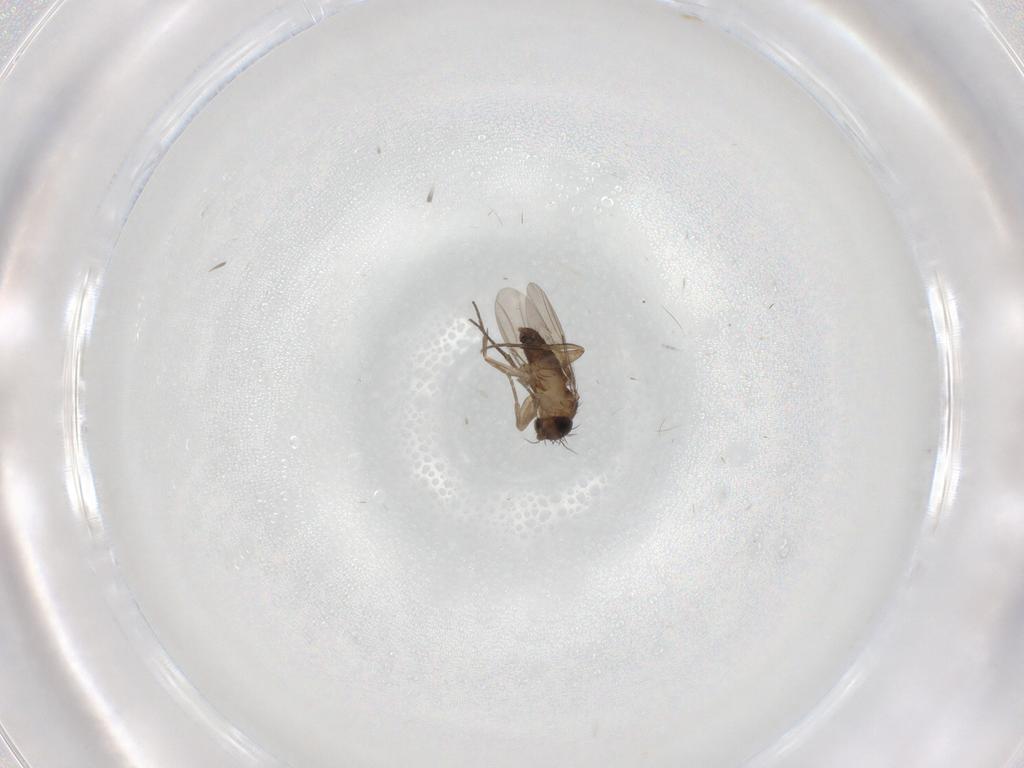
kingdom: Animalia
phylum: Arthropoda
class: Insecta
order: Diptera
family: Phoridae
